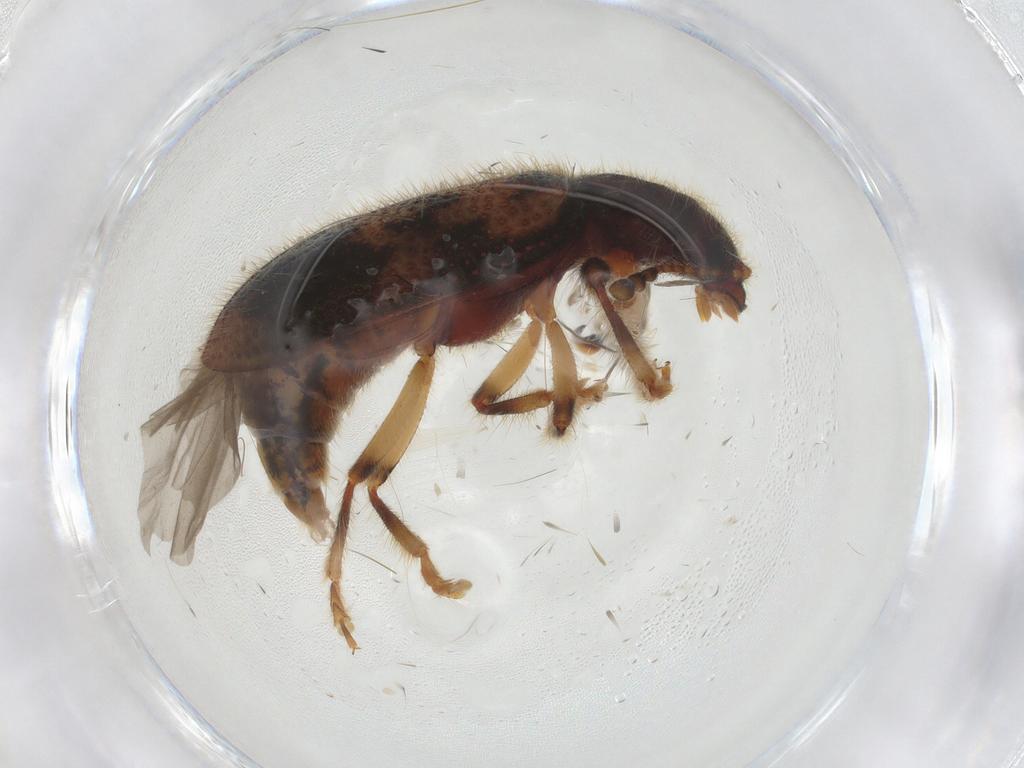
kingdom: Animalia
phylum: Arthropoda
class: Insecta
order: Coleoptera
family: Cleridae
